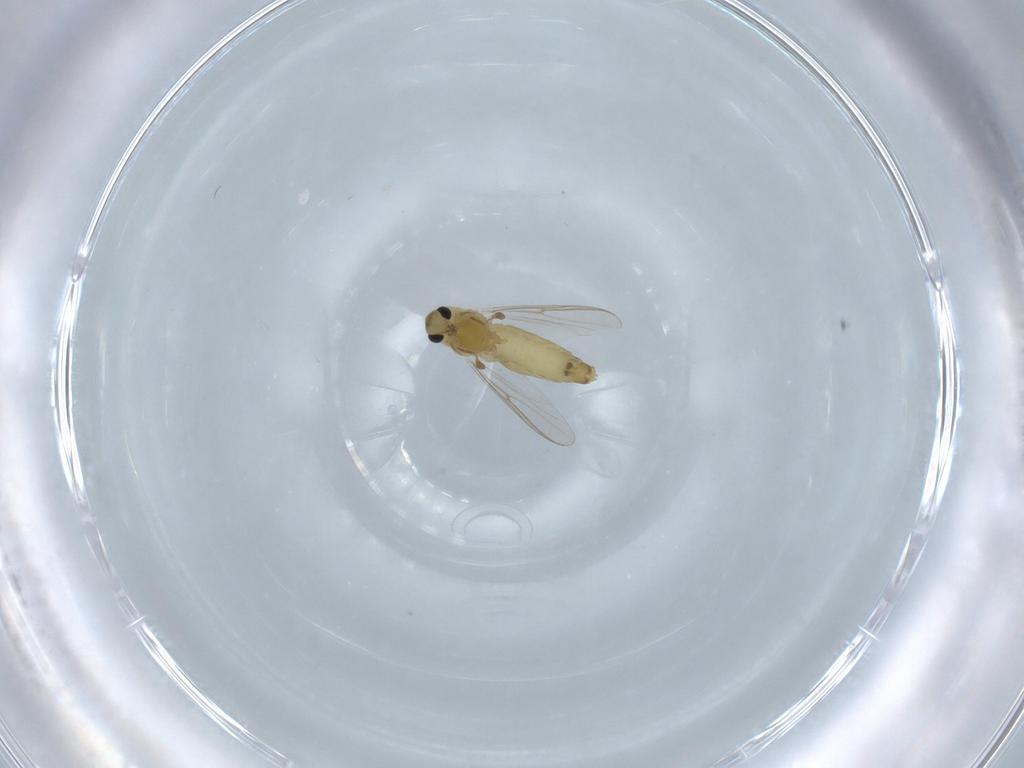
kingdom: Animalia
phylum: Arthropoda
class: Insecta
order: Diptera
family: Chironomidae
